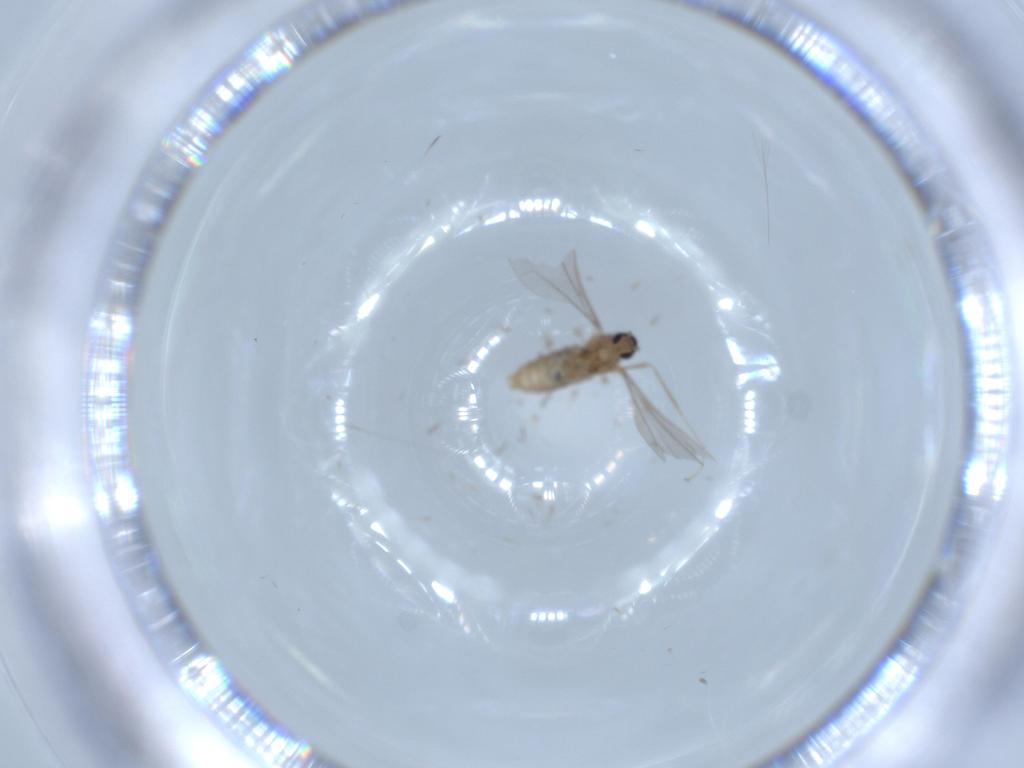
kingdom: Animalia
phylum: Arthropoda
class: Insecta
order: Diptera
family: Cecidomyiidae
